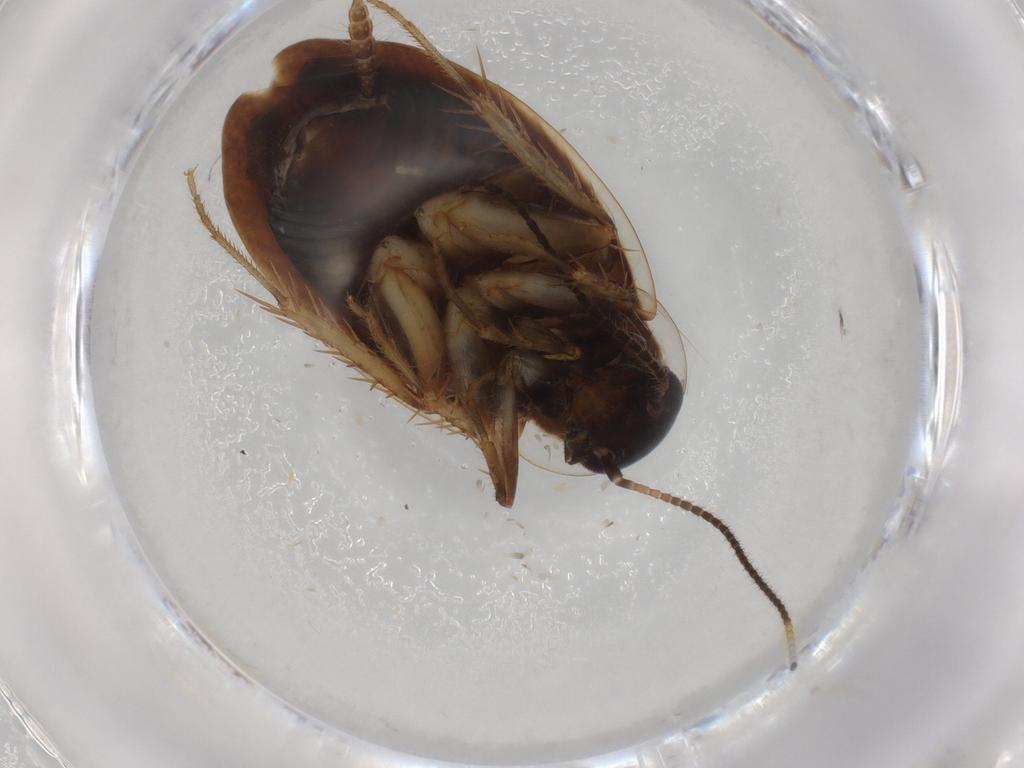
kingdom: Animalia
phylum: Arthropoda
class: Insecta
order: Blattodea
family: Ectobiidae
